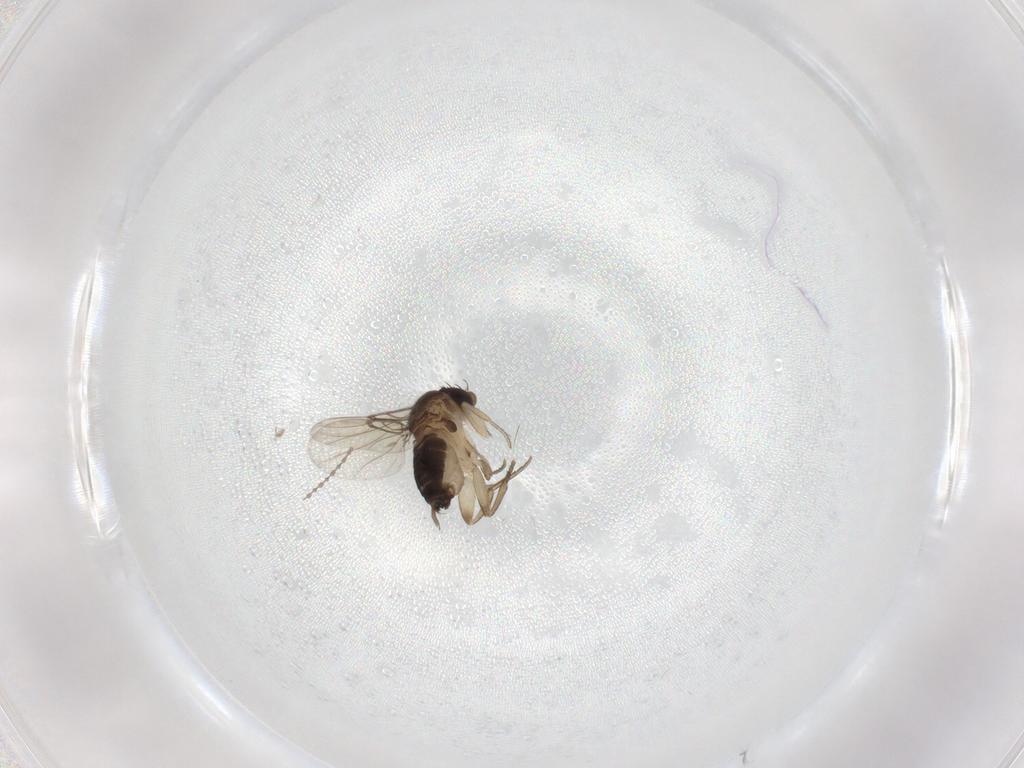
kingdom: Animalia
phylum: Arthropoda
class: Insecta
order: Diptera
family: Cecidomyiidae
